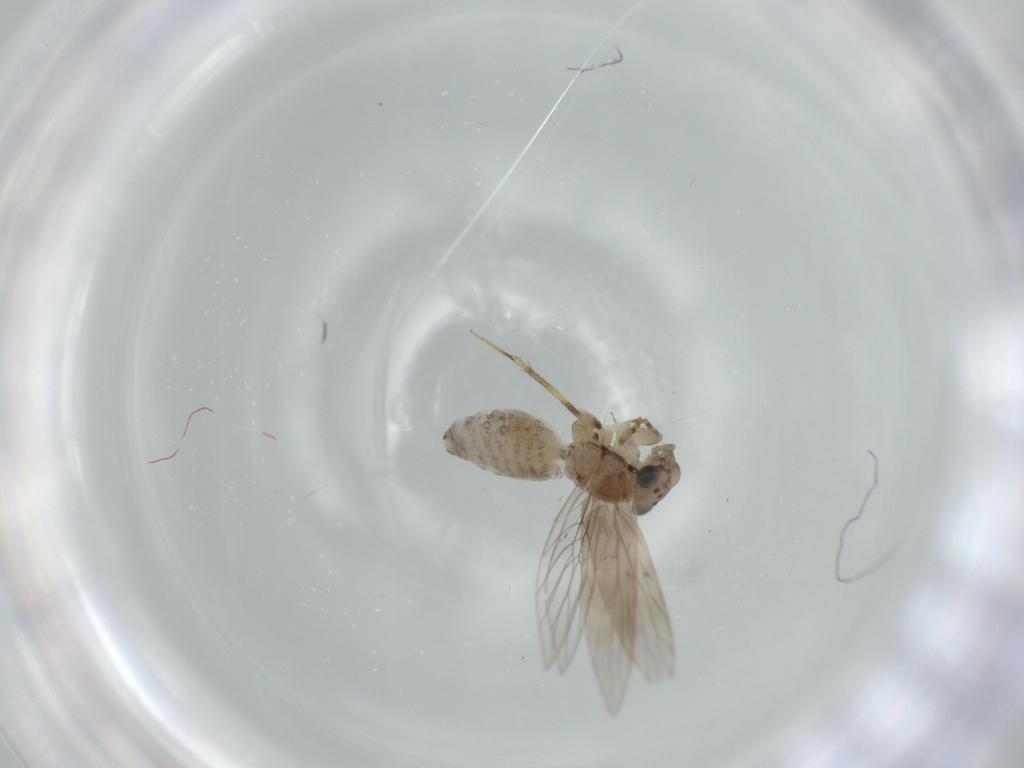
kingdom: Animalia
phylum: Arthropoda
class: Insecta
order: Psocodea
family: Lepidopsocidae
